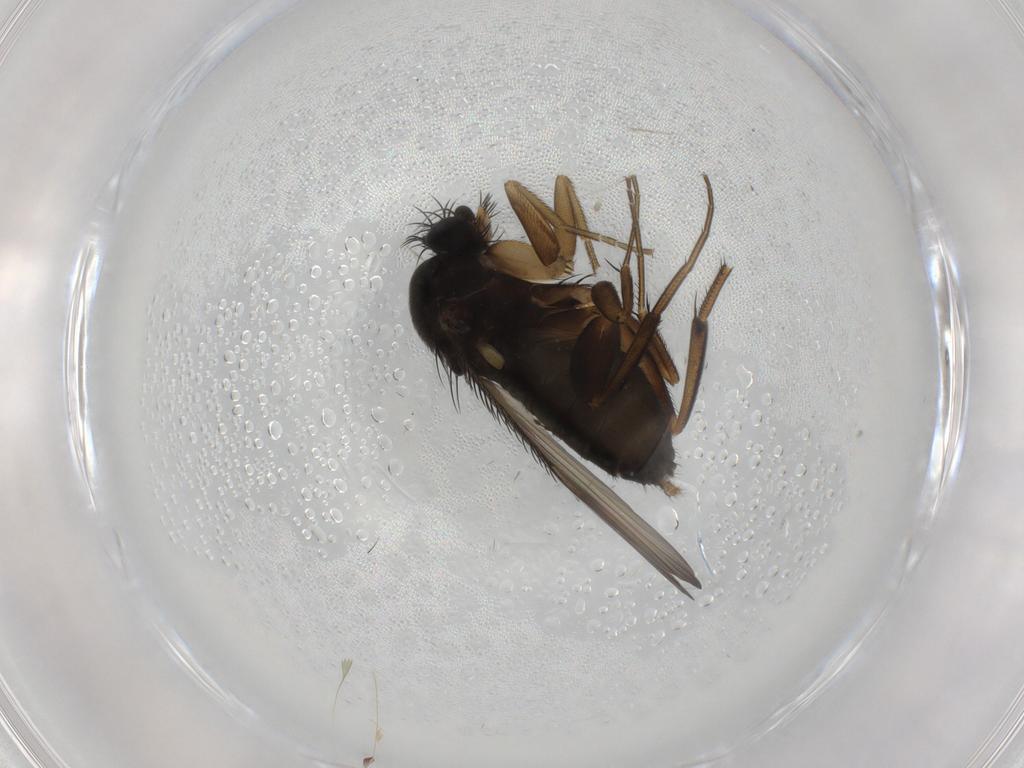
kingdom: Animalia
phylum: Arthropoda
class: Insecta
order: Diptera
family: Phoridae
